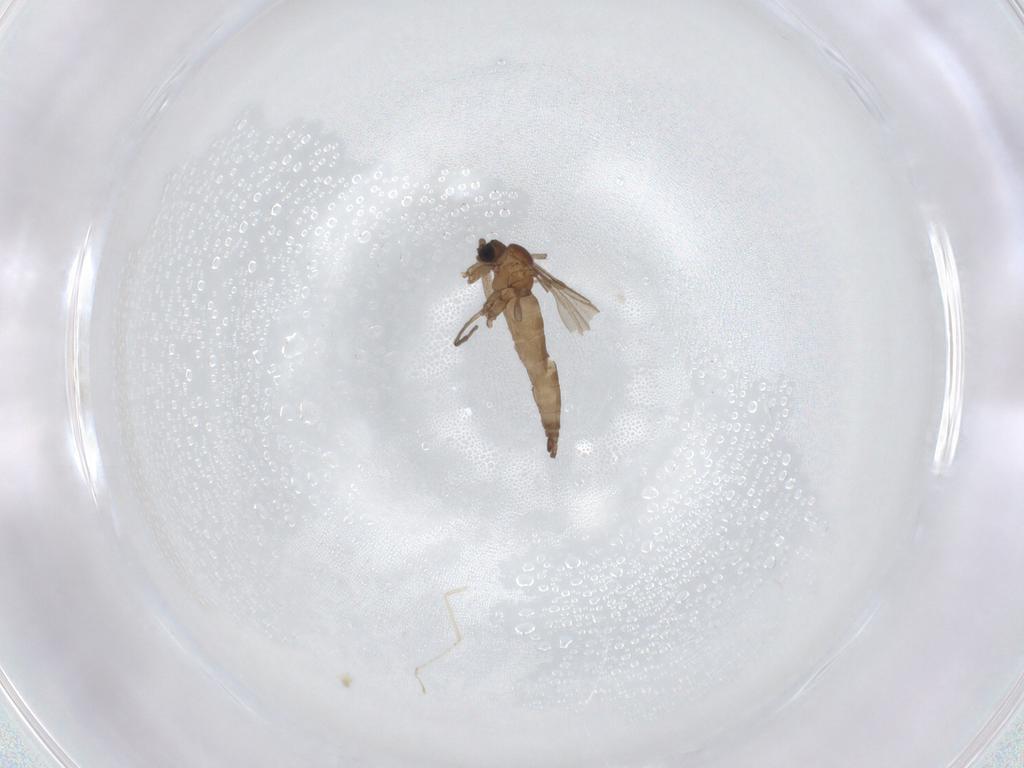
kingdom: Animalia
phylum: Arthropoda
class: Insecta
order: Diptera
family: Sciaridae
